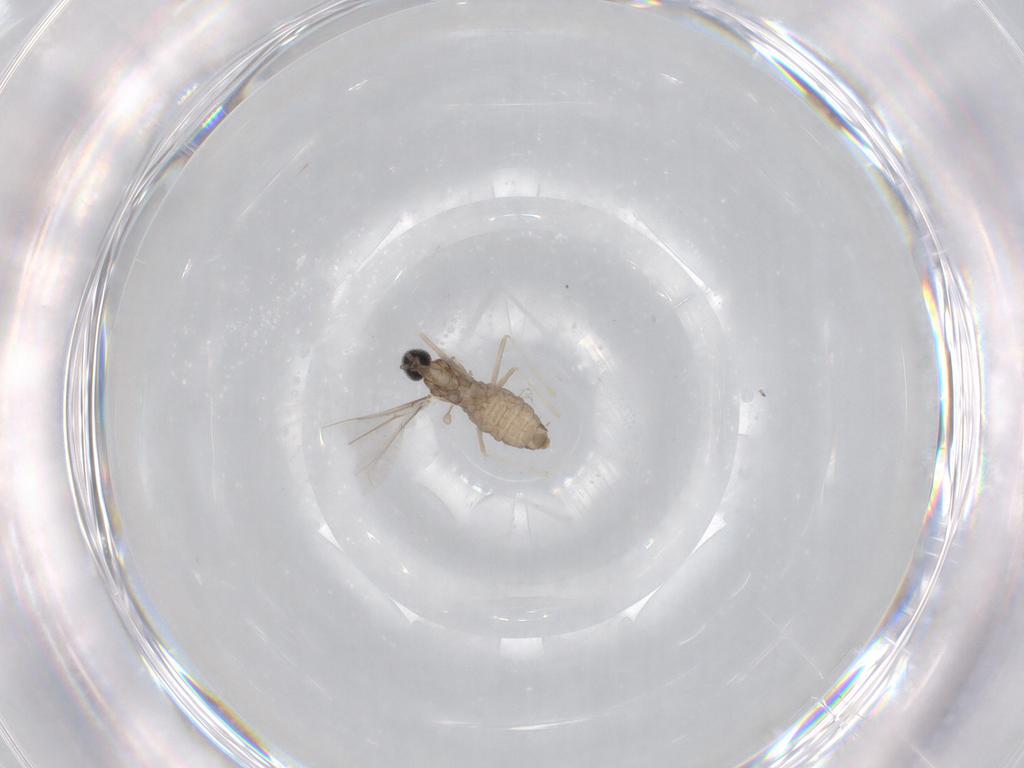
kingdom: Animalia
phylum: Arthropoda
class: Insecta
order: Diptera
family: Cecidomyiidae
